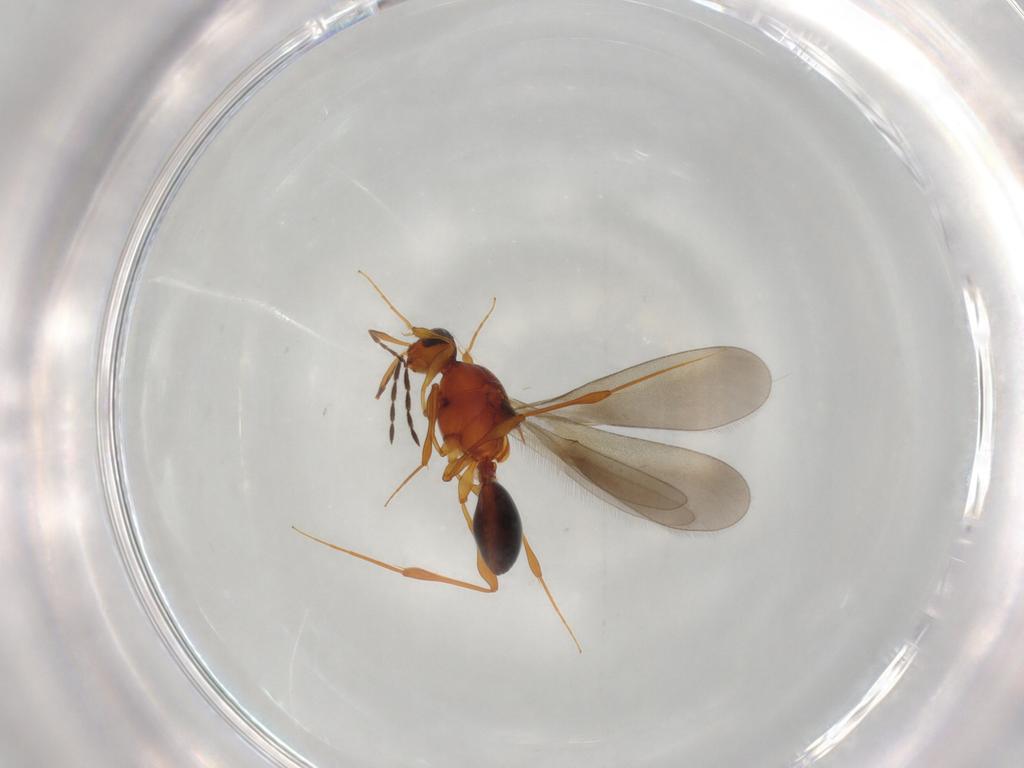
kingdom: Animalia
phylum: Arthropoda
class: Insecta
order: Hymenoptera
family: Platygastridae
